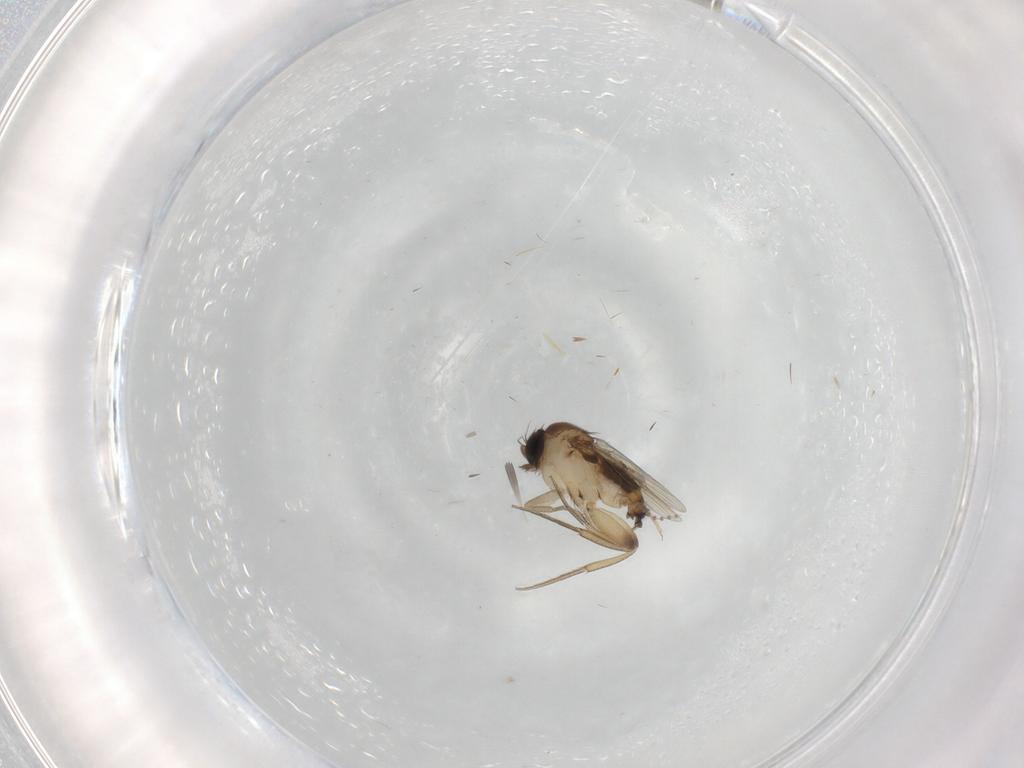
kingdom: Animalia
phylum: Arthropoda
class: Insecta
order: Diptera
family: Phoridae
